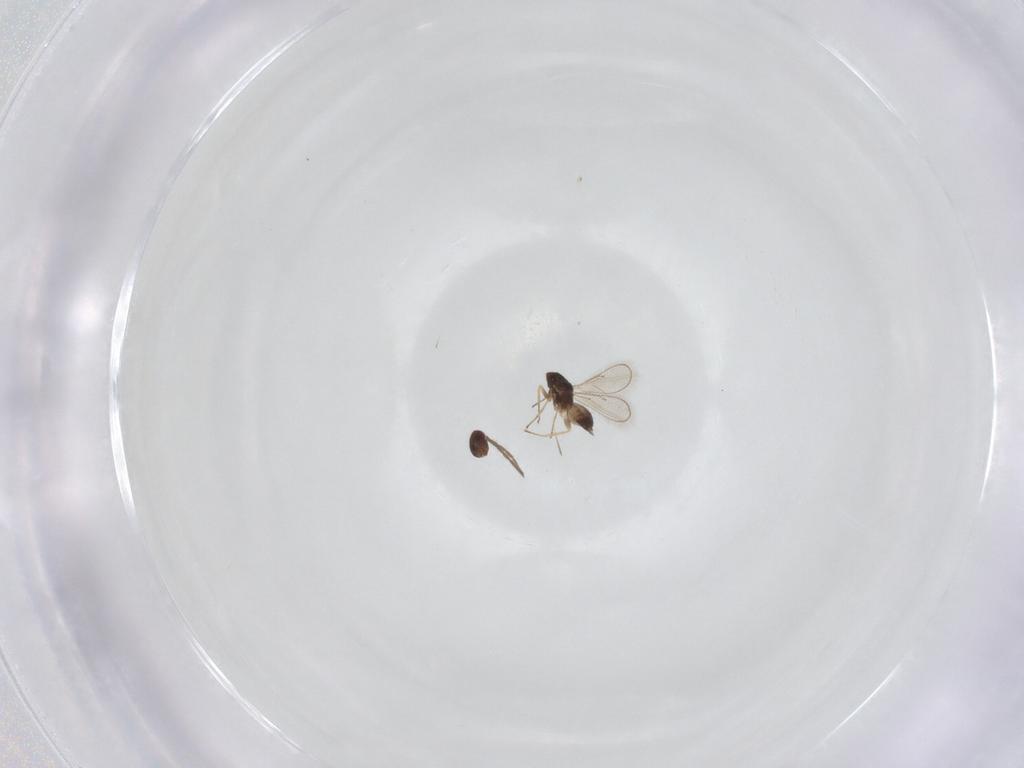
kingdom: Animalia
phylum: Arthropoda
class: Insecta
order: Hymenoptera
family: Eulophidae
